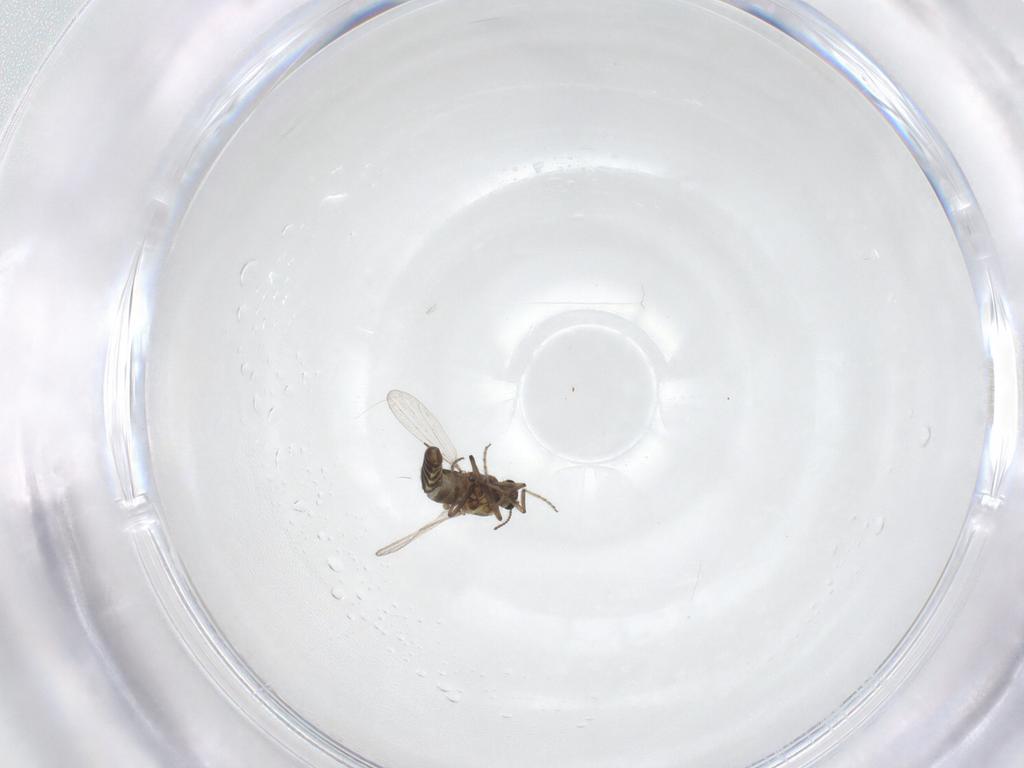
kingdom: Animalia
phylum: Arthropoda
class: Insecta
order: Diptera
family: Ceratopogonidae
